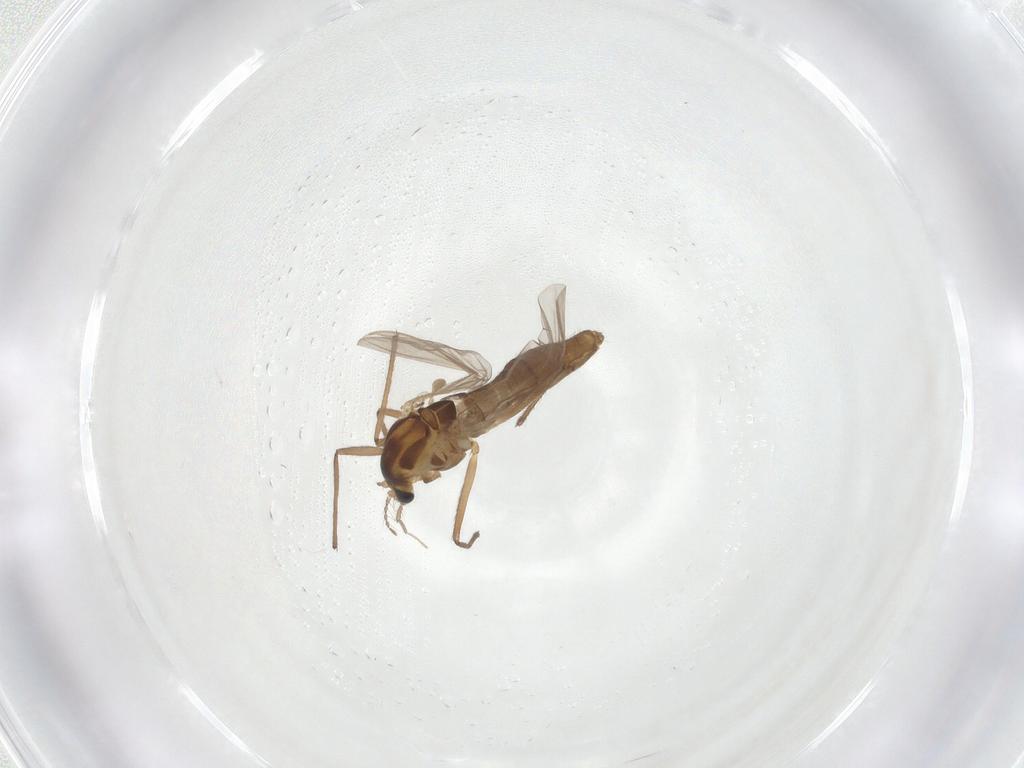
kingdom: Animalia
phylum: Arthropoda
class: Insecta
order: Diptera
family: Chironomidae
